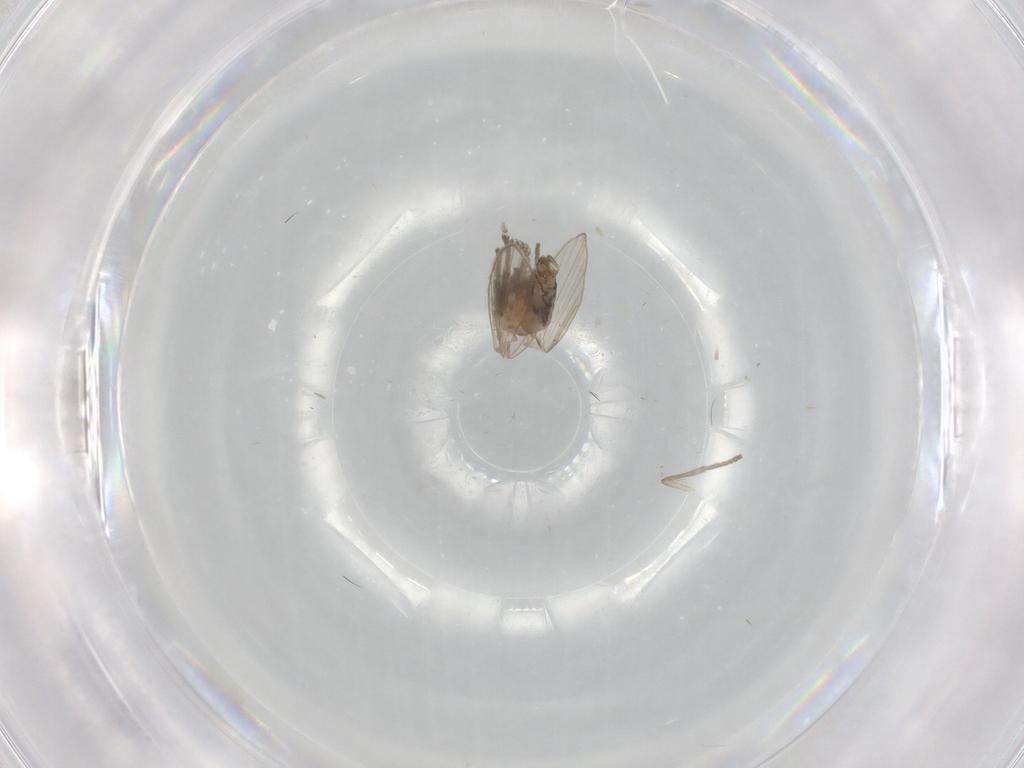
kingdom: Animalia
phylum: Arthropoda
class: Insecta
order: Diptera
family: Psychodidae
